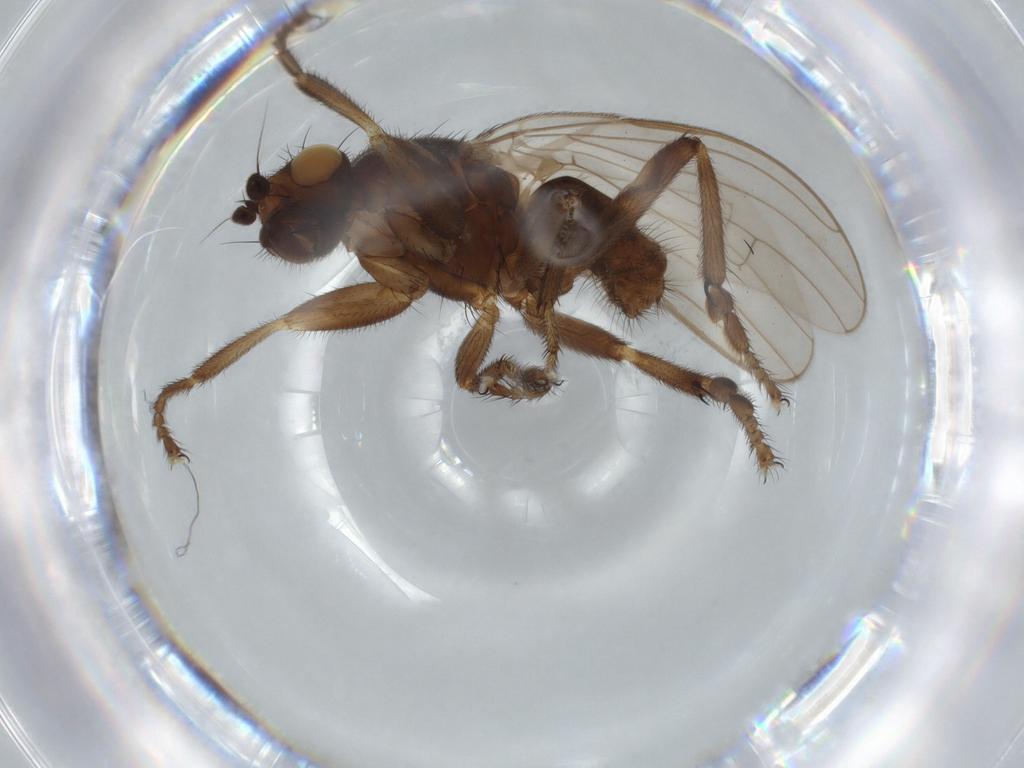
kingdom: Animalia
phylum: Arthropoda
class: Insecta
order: Diptera
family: Sphaeroceridae
